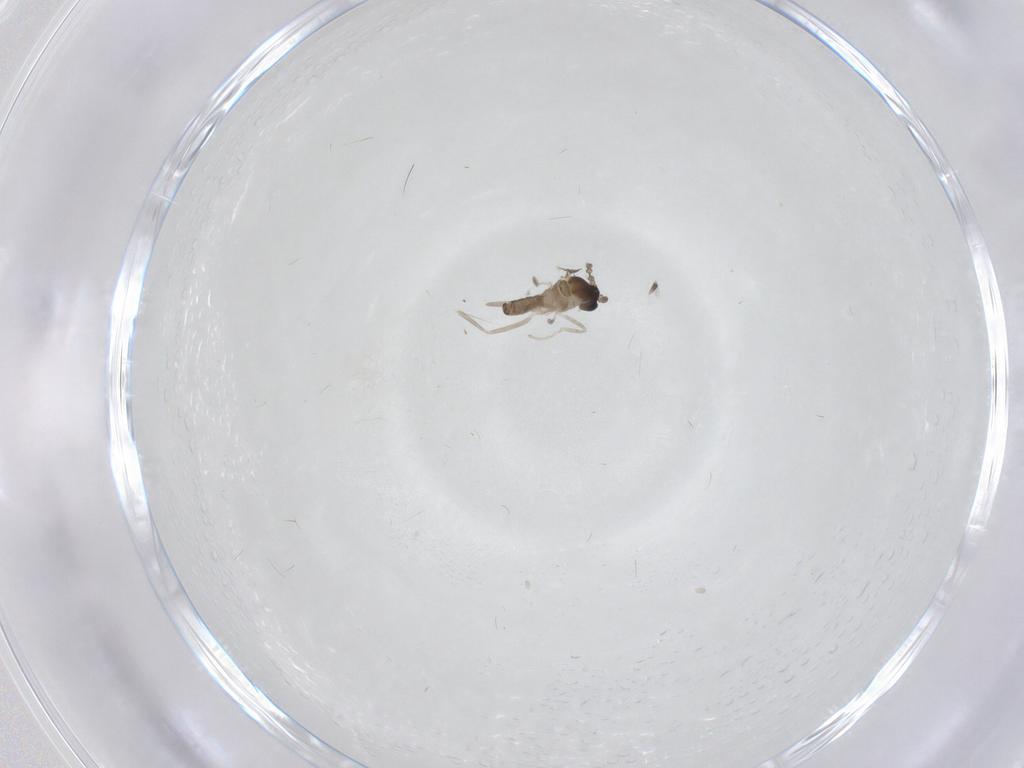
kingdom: Animalia
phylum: Arthropoda
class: Insecta
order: Diptera
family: Cecidomyiidae
